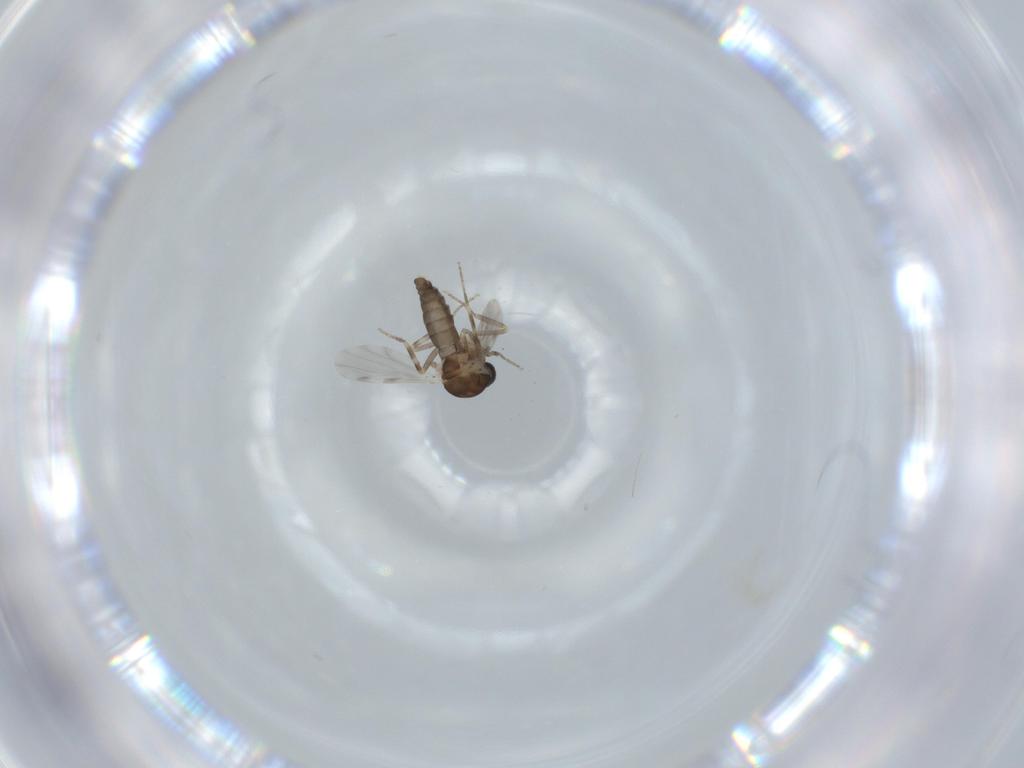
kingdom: Animalia
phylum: Arthropoda
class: Insecta
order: Diptera
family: Ceratopogonidae
